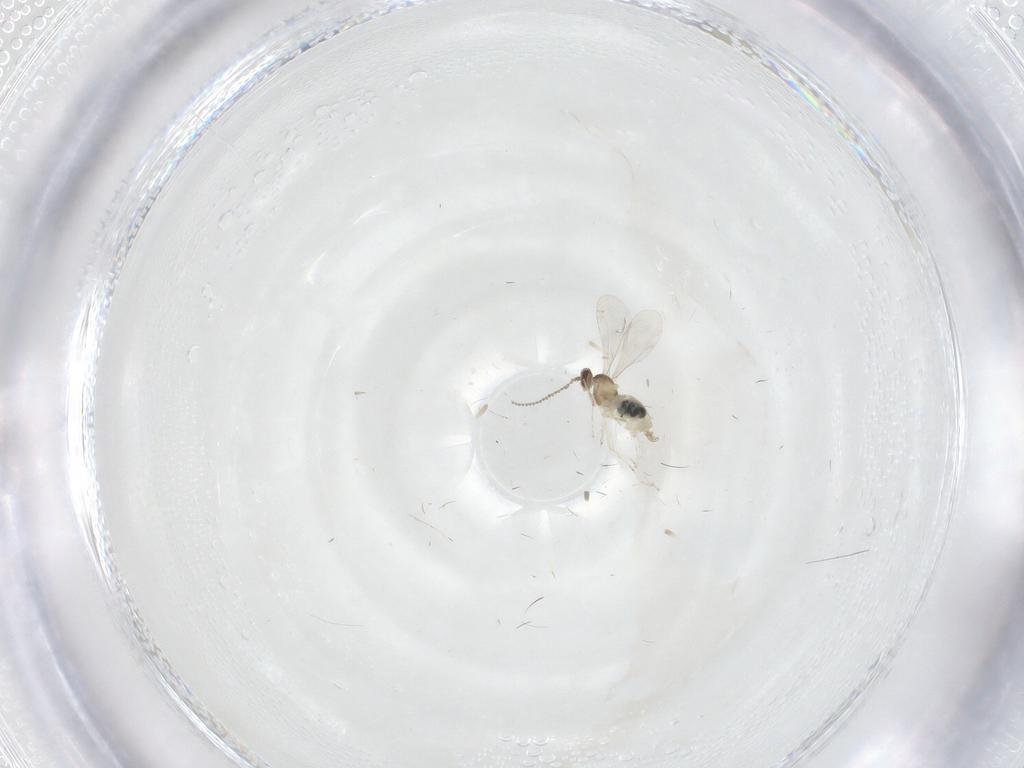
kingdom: Animalia
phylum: Arthropoda
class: Insecta
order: Diptera
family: Cecidomyiidae
